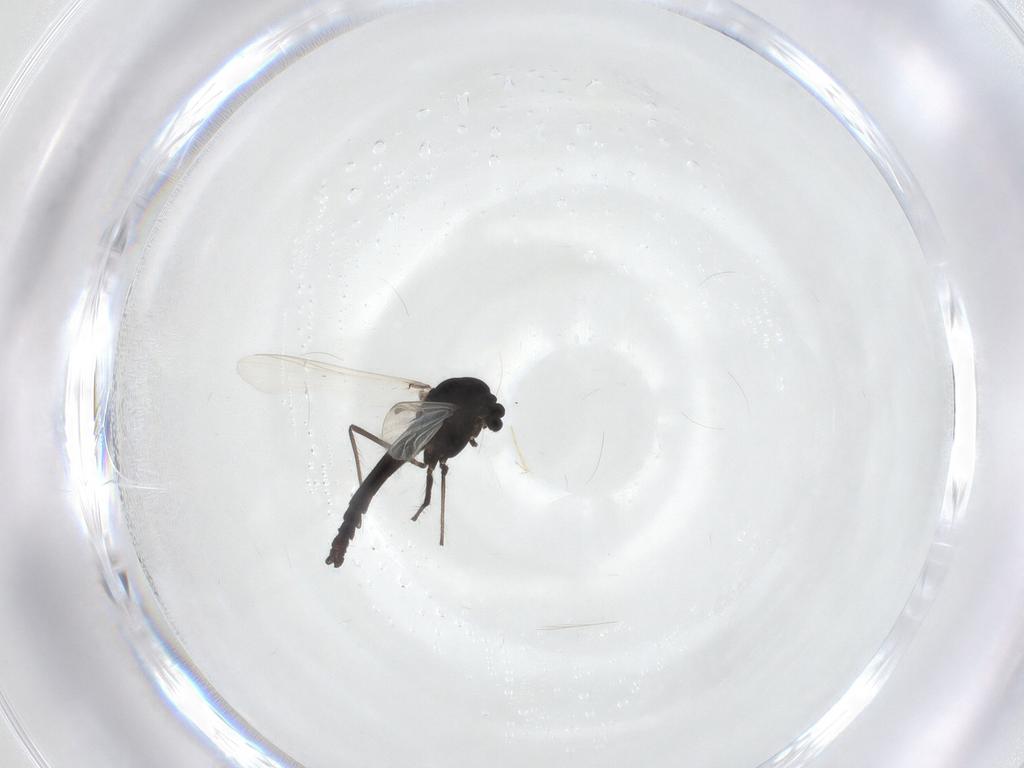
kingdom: Animalia
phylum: Arthropoda
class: Insecta
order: Diptera
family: Chironomidae
